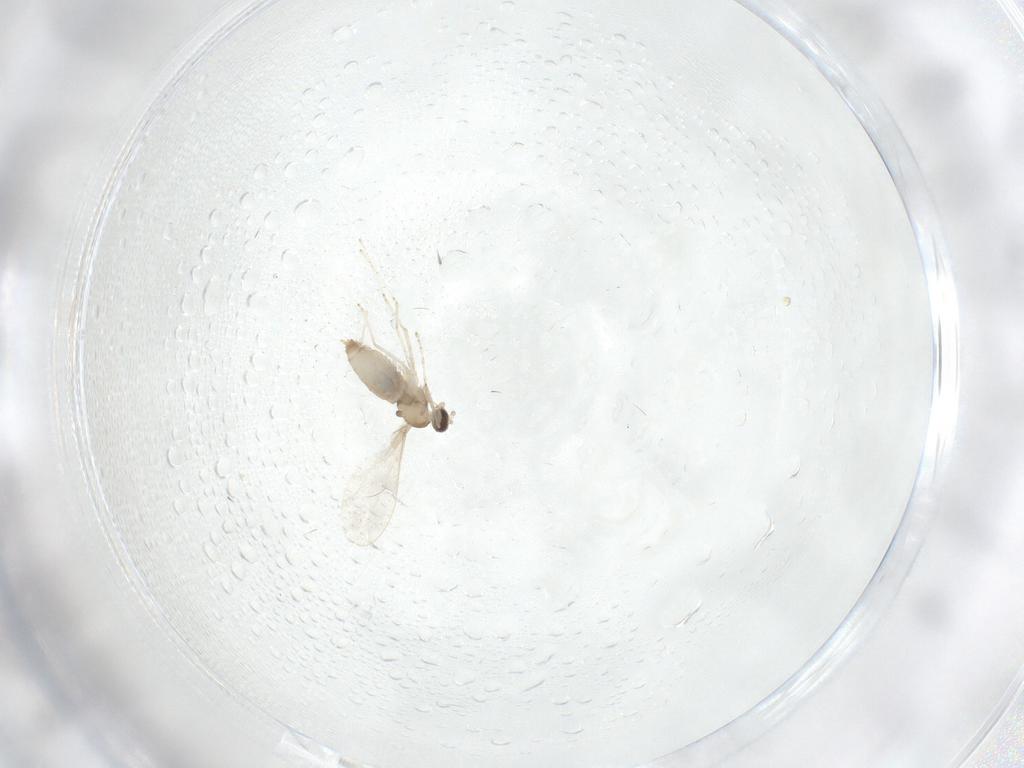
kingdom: Animalia
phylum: Arthropoda
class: Insecta
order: Diptera
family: Cecidomyiidae
